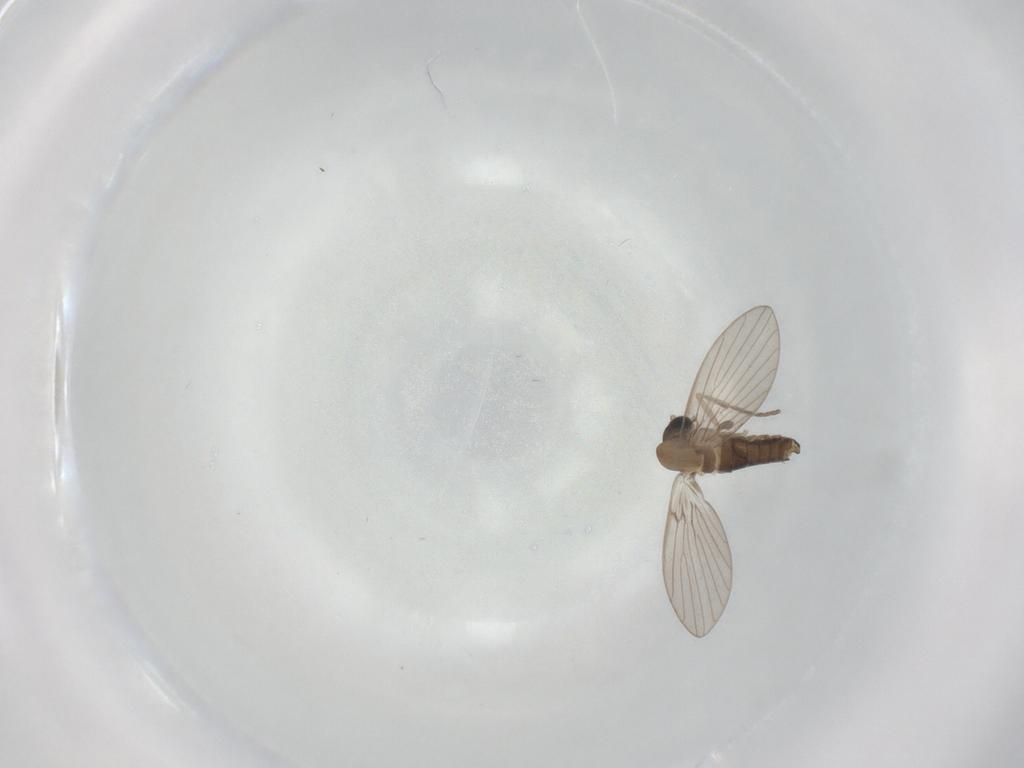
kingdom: Animalia
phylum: Arthropoda
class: Insecta
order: Diptera
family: Psychodidae
